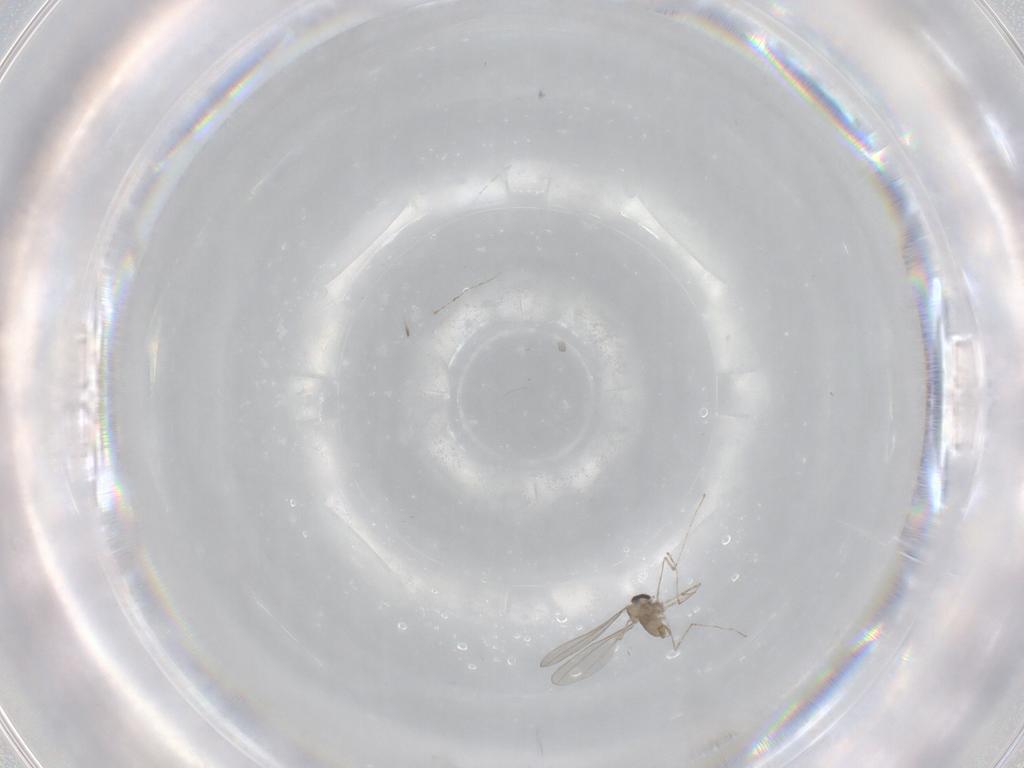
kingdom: Animalia
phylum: Arthropoda
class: Insecta
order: Diptera
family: Cecidomyiidae
